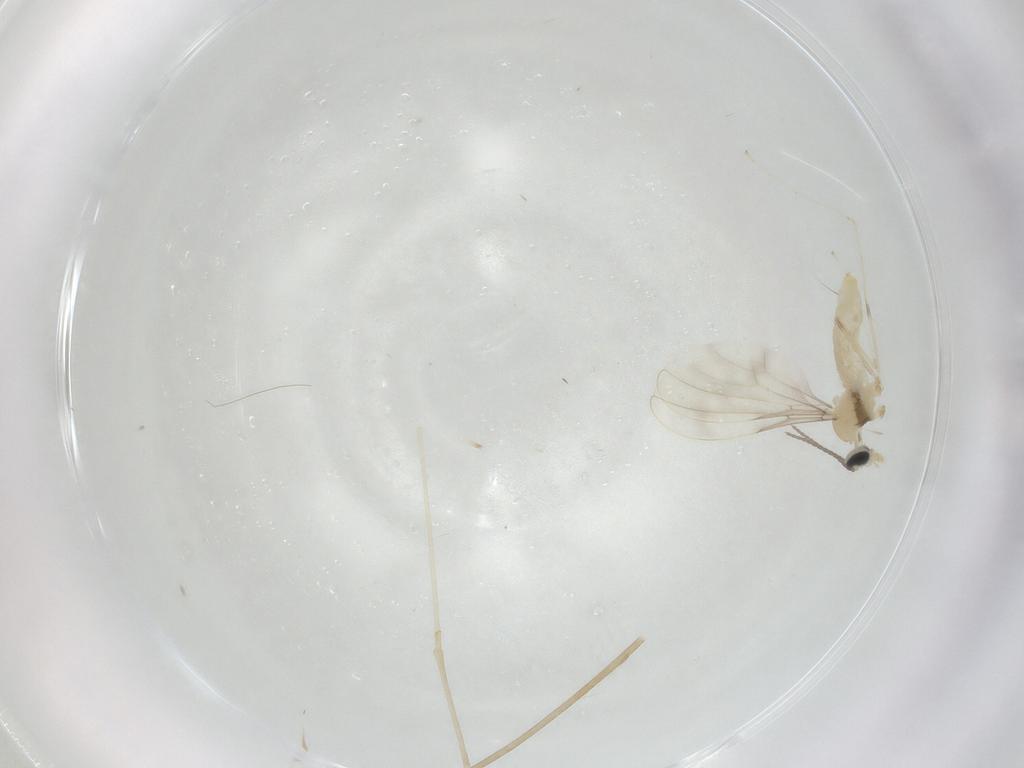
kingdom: Animalia
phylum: Arthropoda
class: Insecta
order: Diptera
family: Cecidomyiidae
